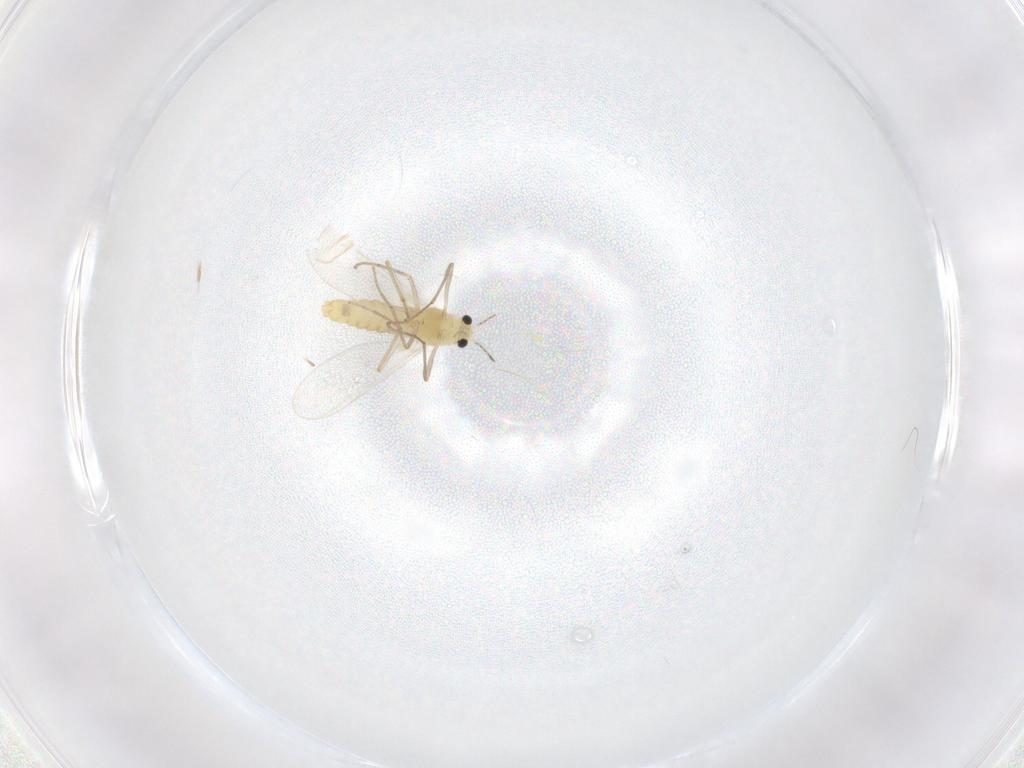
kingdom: Animalia
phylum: Arthropoda
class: Insecta
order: Diptera
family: Chironomidae
